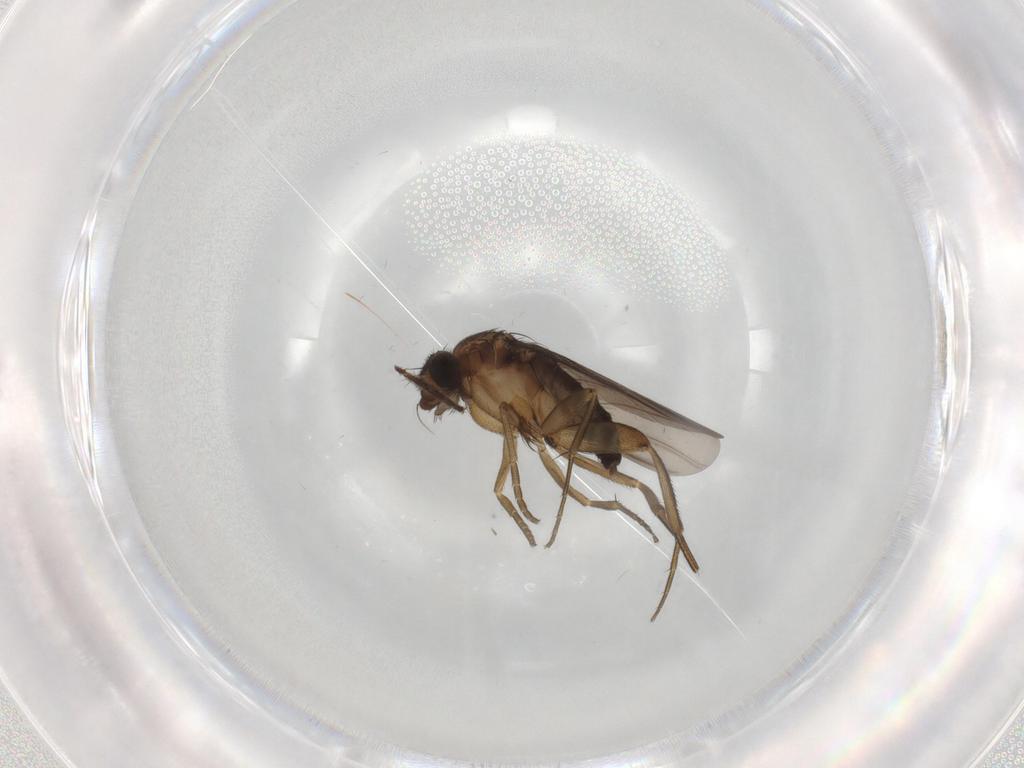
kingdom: Animalia
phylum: Arthropoda
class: Insecta
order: Diptera
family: Phoridae
